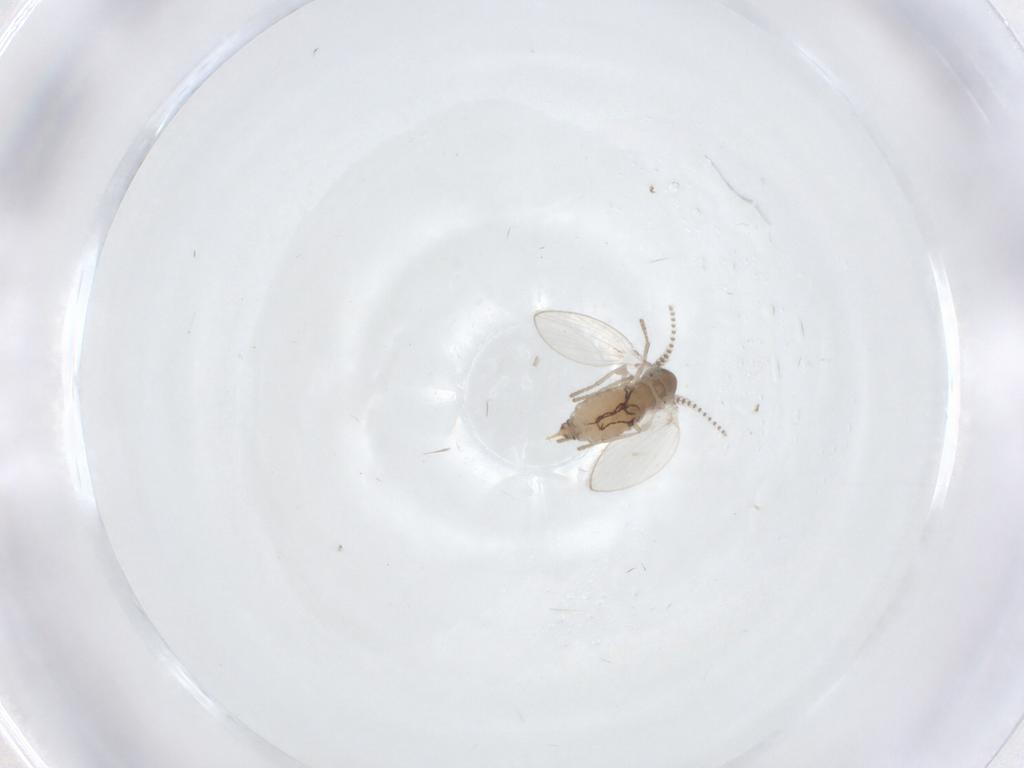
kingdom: Animalia
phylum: Arthropoda
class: Insecta
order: Diptera
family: Psychodidae
